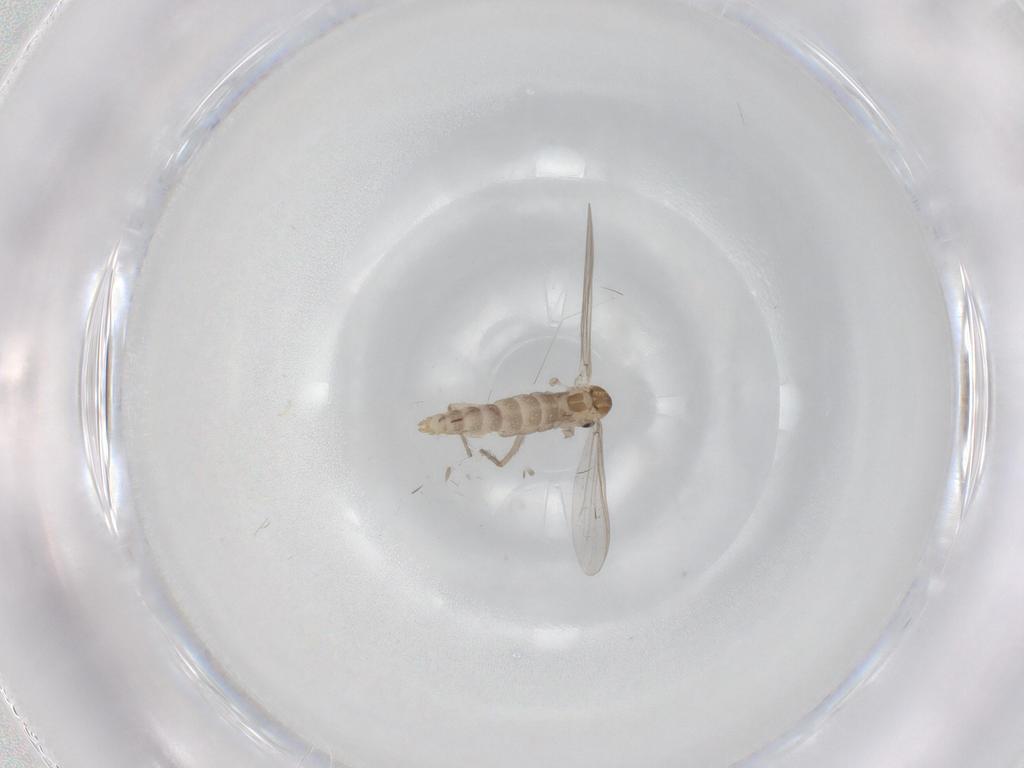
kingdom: Animalia
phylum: Arthropoda
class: Insecta
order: Diptera
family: Chironomidae
